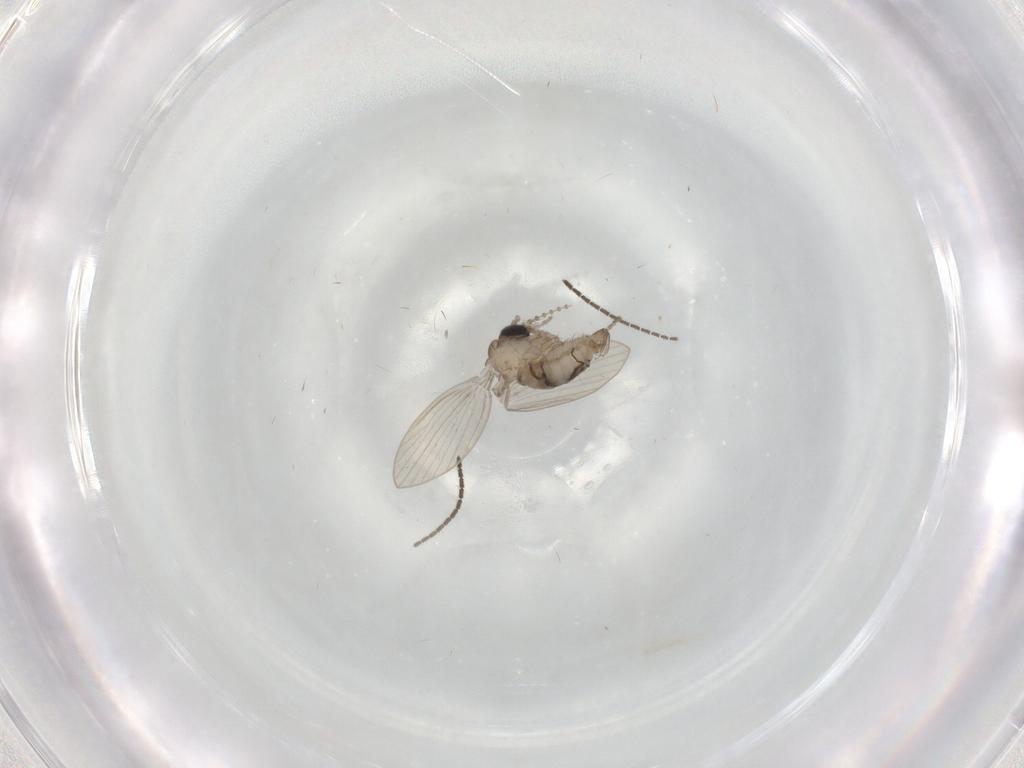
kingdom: Animalia
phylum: Arthropoda
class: Insecta
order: Diptera
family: Psychodidae
